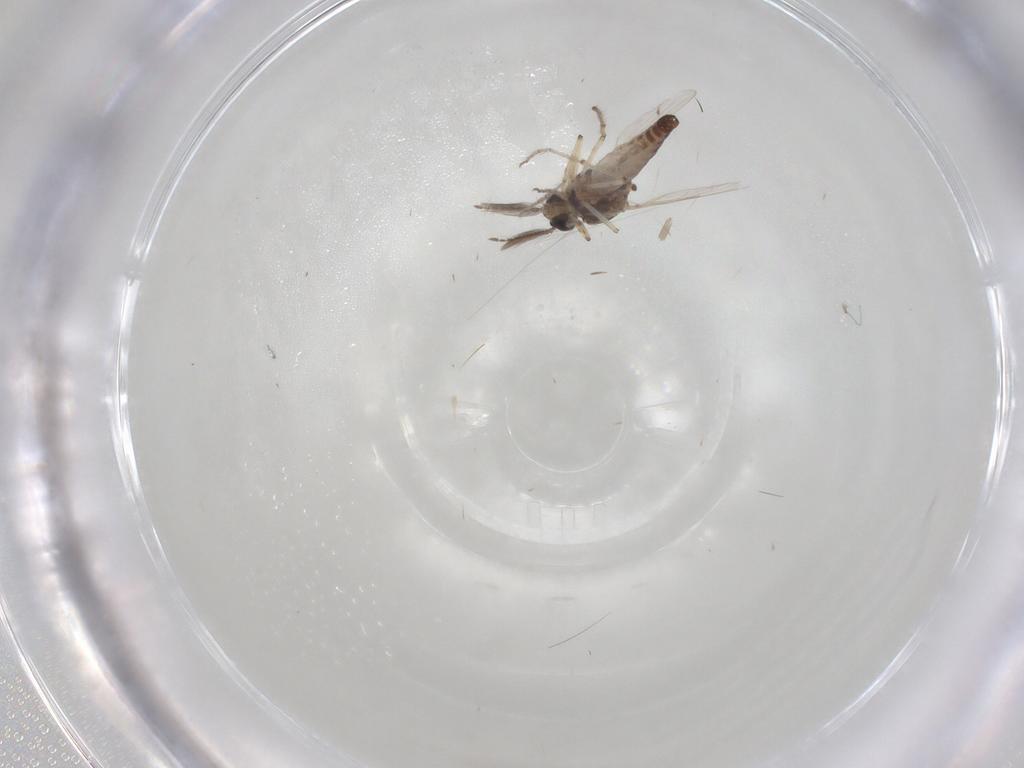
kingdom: Animalia
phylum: Arthropoda
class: Insecta
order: Diptera
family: Ceratopogonidae
